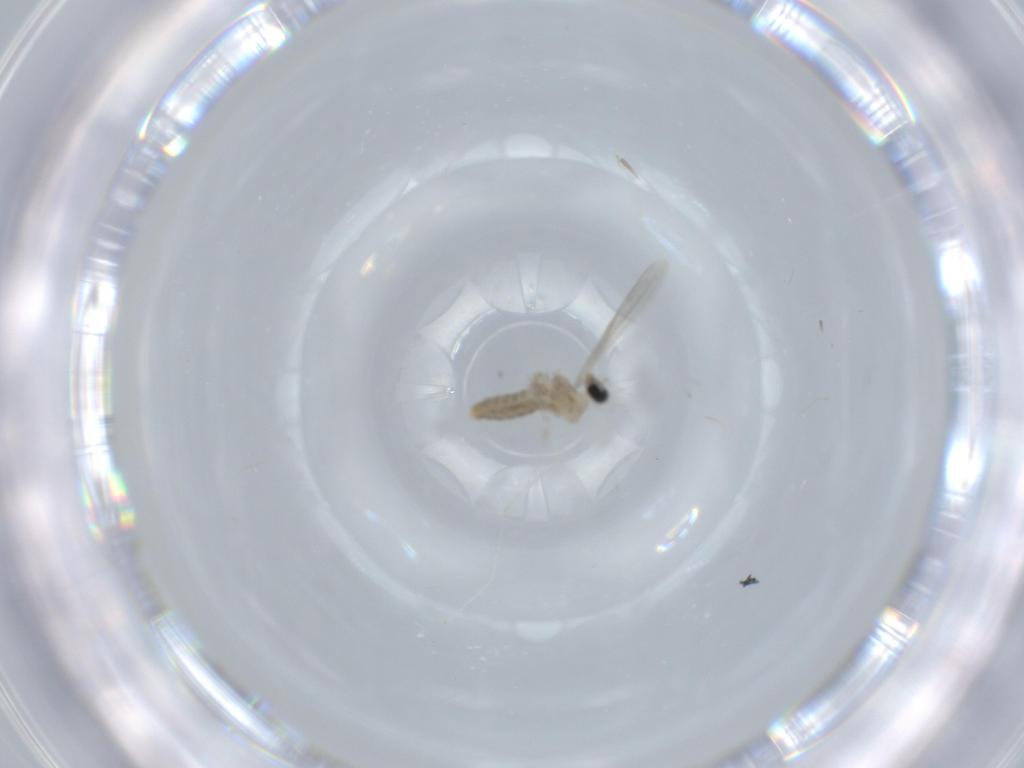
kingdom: Animalia
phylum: Arthropoda
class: Insecta
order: Diptera
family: Cecidomyiidae
